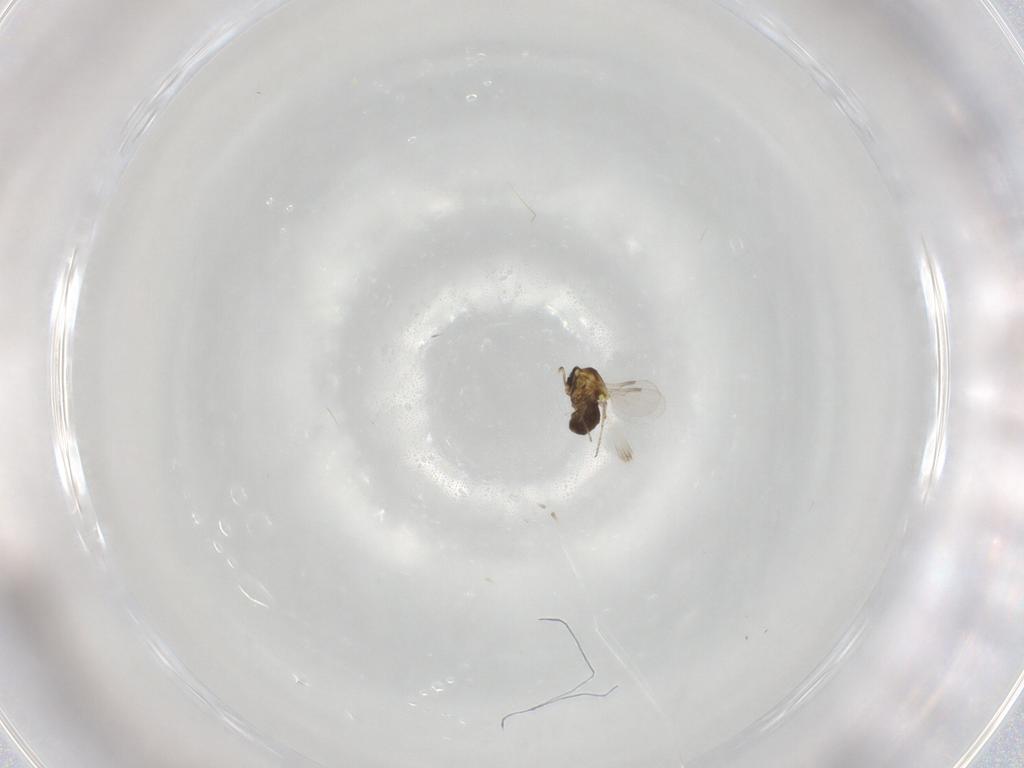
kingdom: Animalia
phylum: Arthropoda
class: Insecta
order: Diptera
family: Ceratopogonidae
